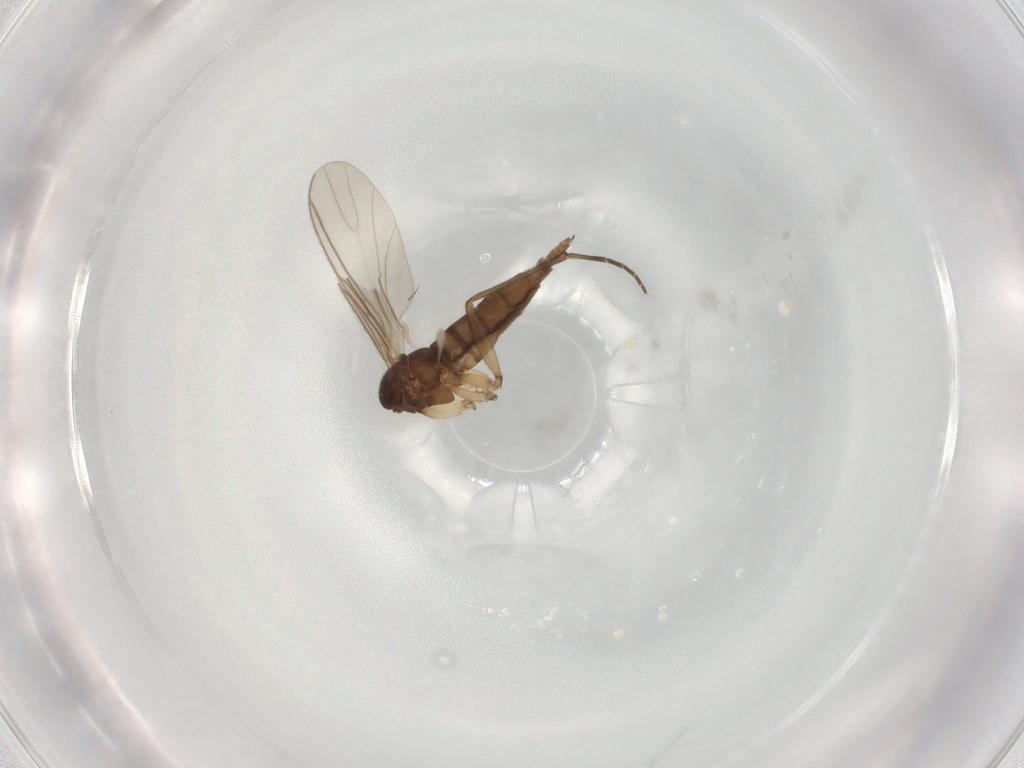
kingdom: Animalia
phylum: Arthropoda
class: Insecta
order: Diptera
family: Sciaridae
